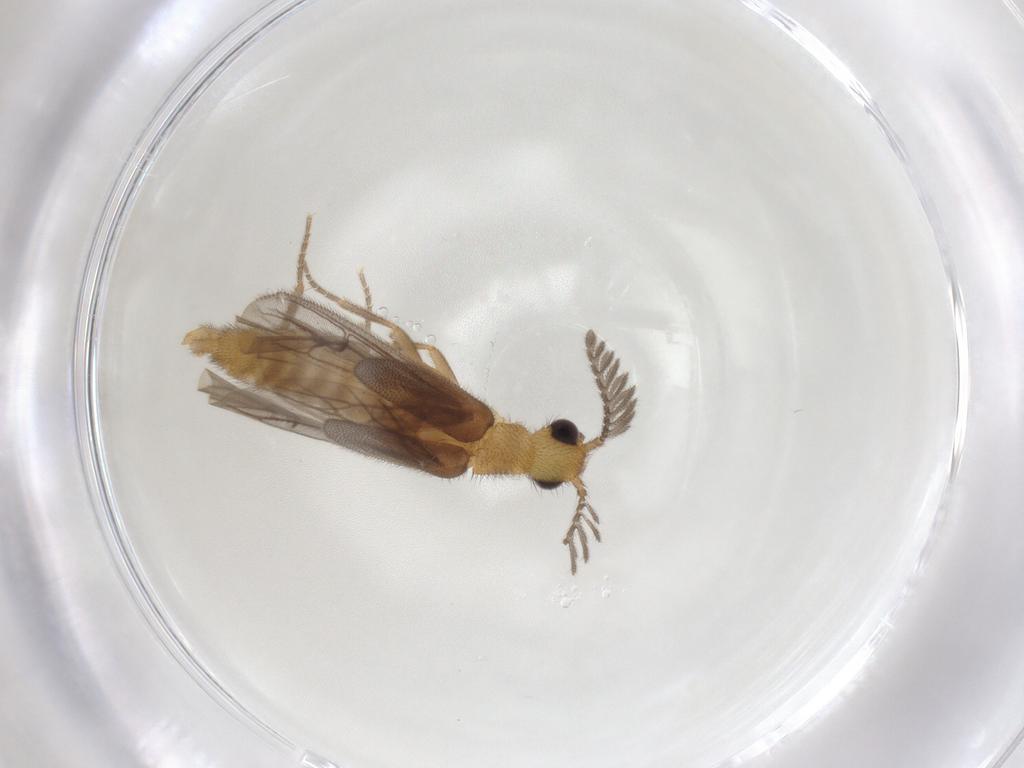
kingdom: Animalia
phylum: Arthropoda
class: Insecta
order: Coleoptera
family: Phengodidae
